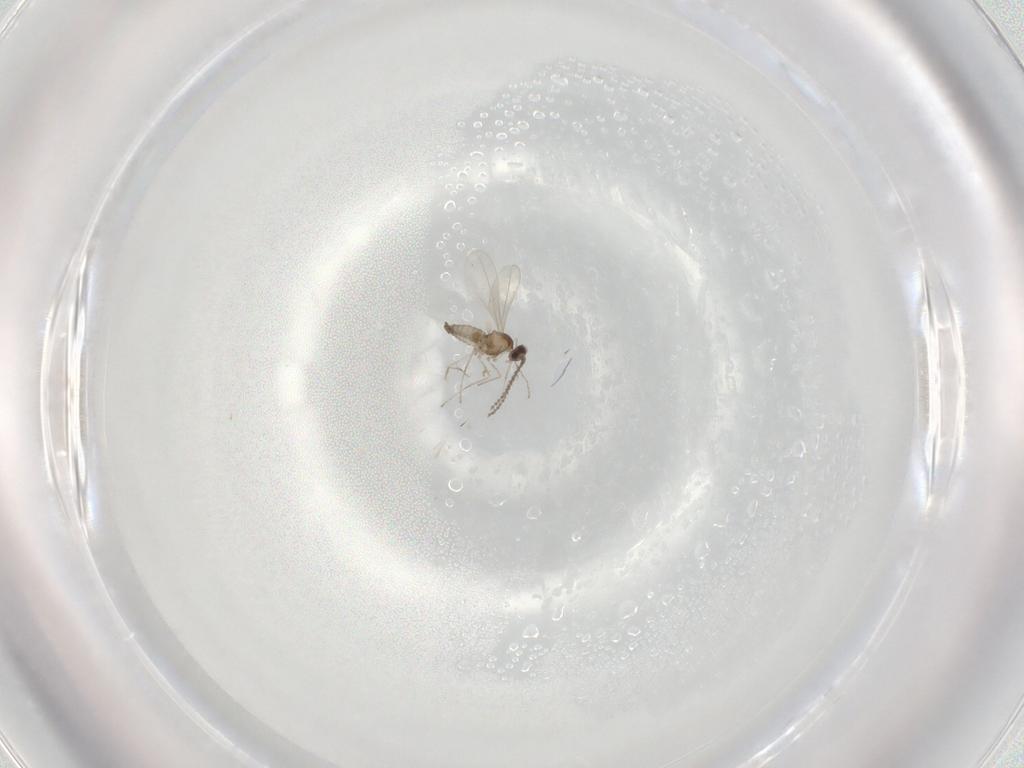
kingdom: Animalia
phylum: Arthropoda
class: Insecta
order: Diptera
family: Cecidomyiidae
